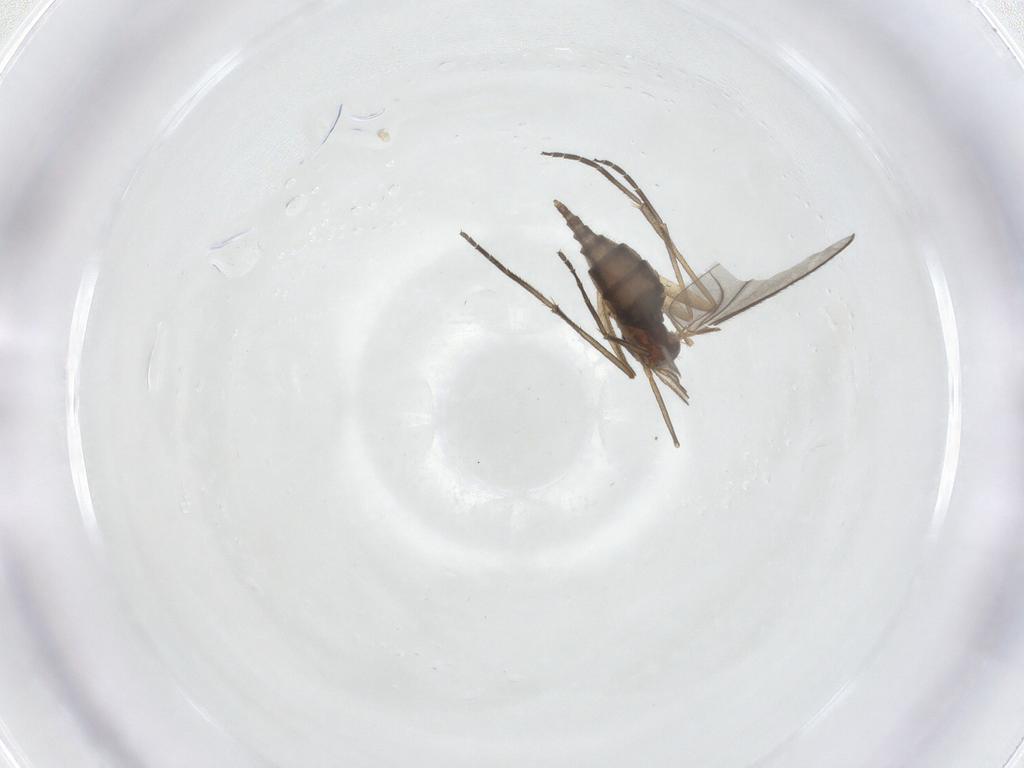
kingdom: Animalia
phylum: Arthropoda
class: Insecta
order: Diptera
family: Sciaridae
